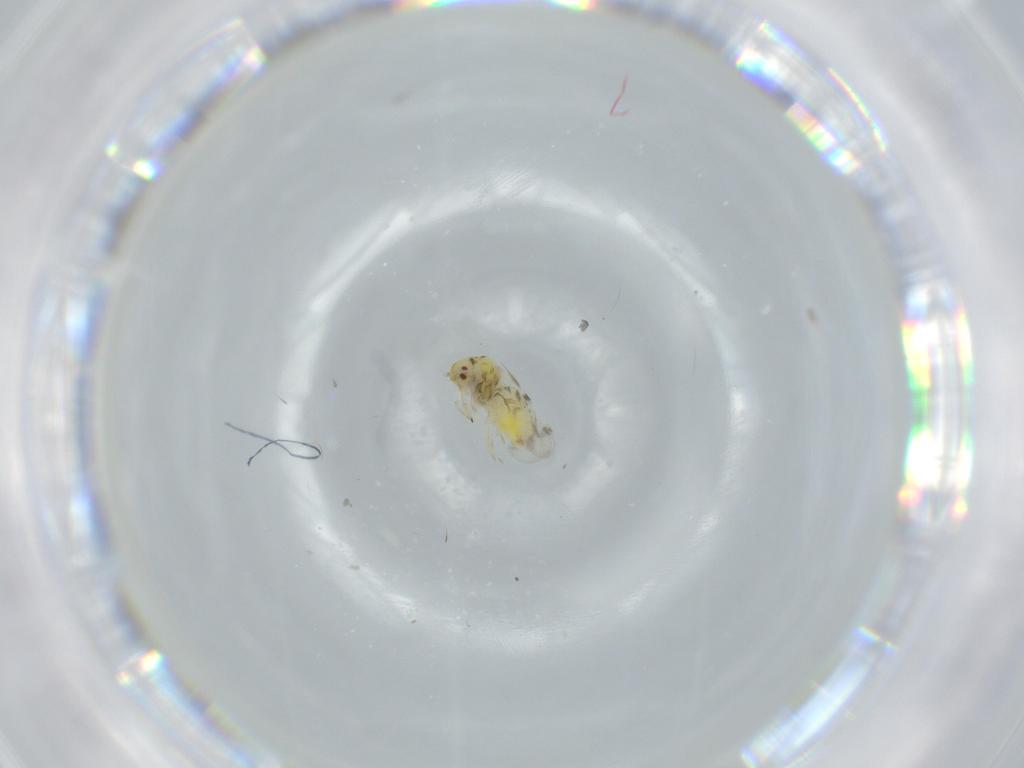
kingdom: Animalia
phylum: Arthropoda
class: Insecta
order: Hemiptera
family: Aleyrodidae
